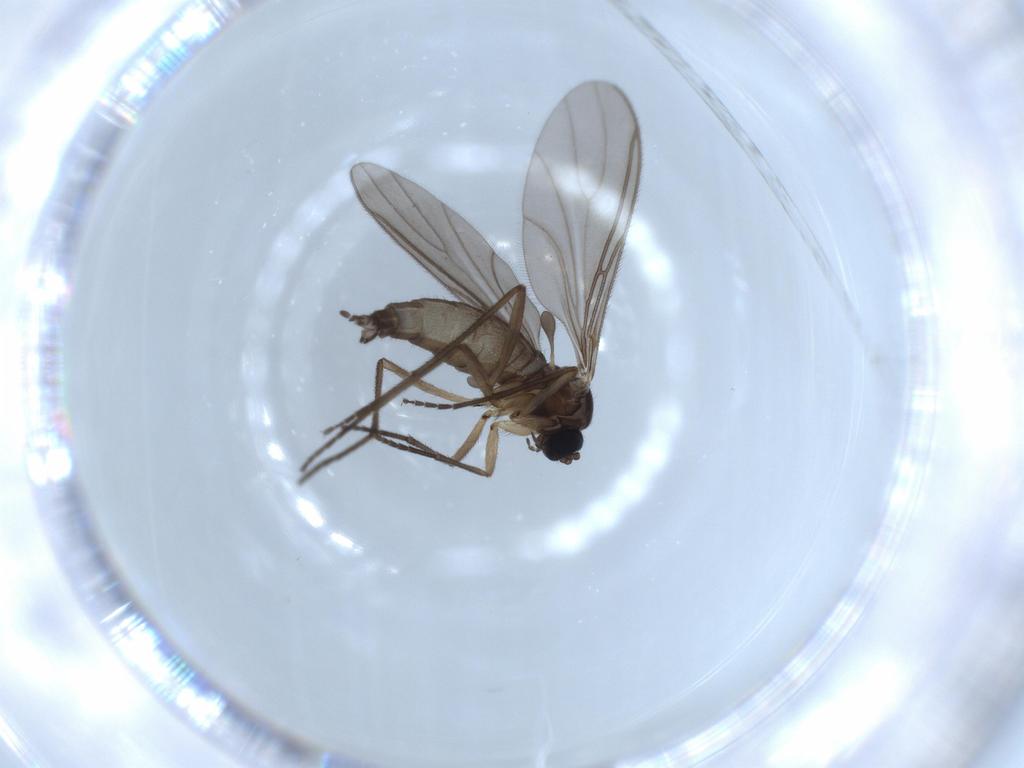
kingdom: Animalia
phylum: Arthropoda
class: Insecta
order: Diptera
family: Sciaridae
